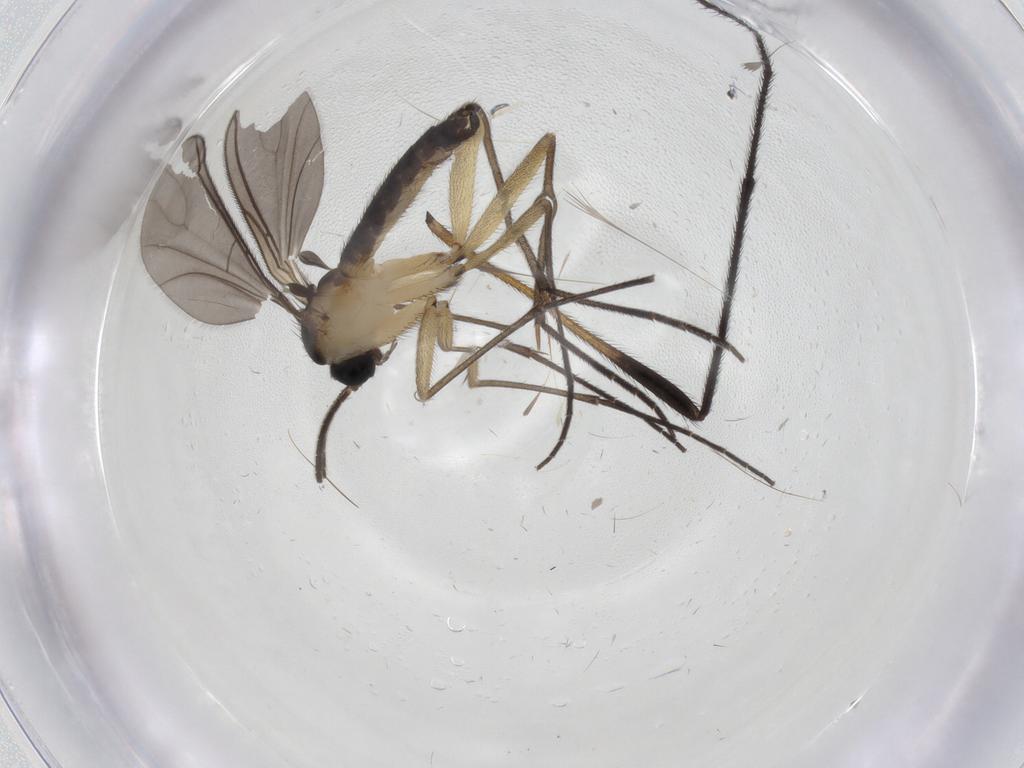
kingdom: Animalia
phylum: Arthropoda
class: Insecta
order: Diptera
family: Sciaridae
